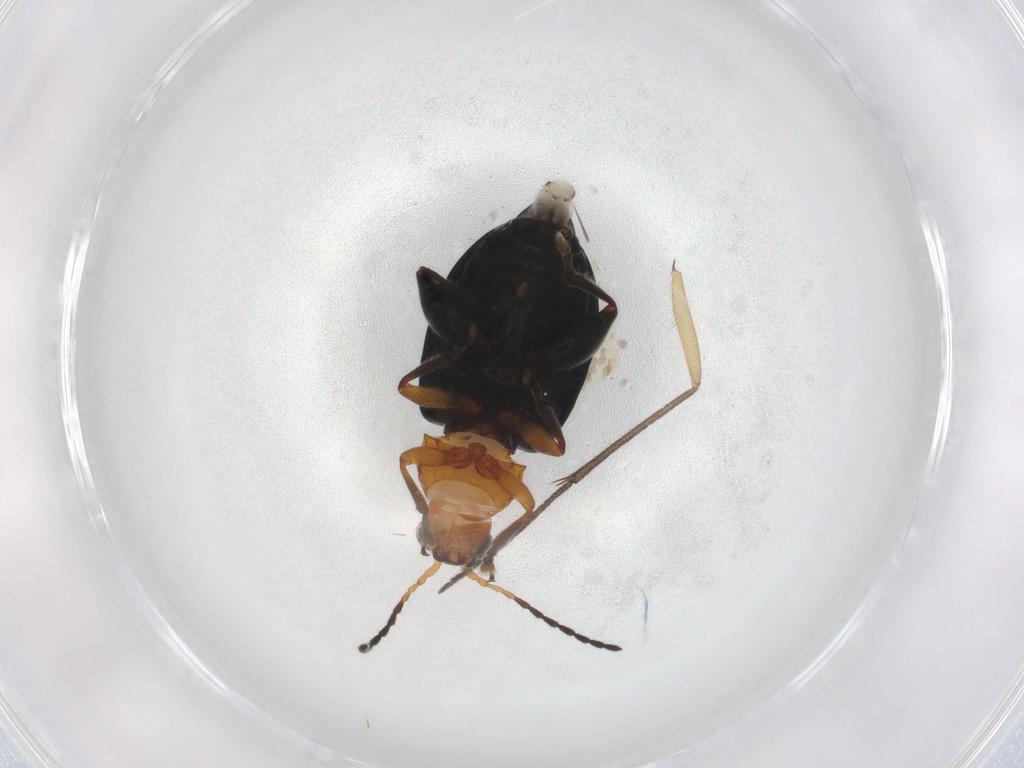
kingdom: Animalia
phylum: Arthropoda
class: Insecta
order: Coleoptera
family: Chrysomelidae
